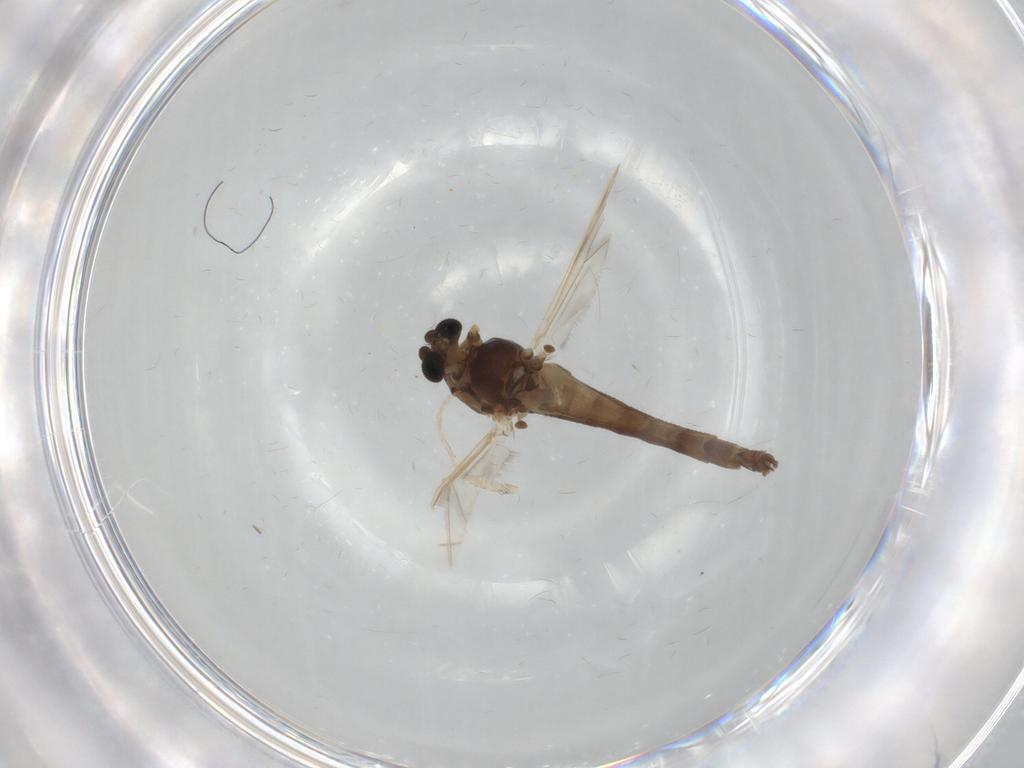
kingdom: Animalia
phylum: Arthropoda
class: Insecta
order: Diptera
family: Chironomidae
